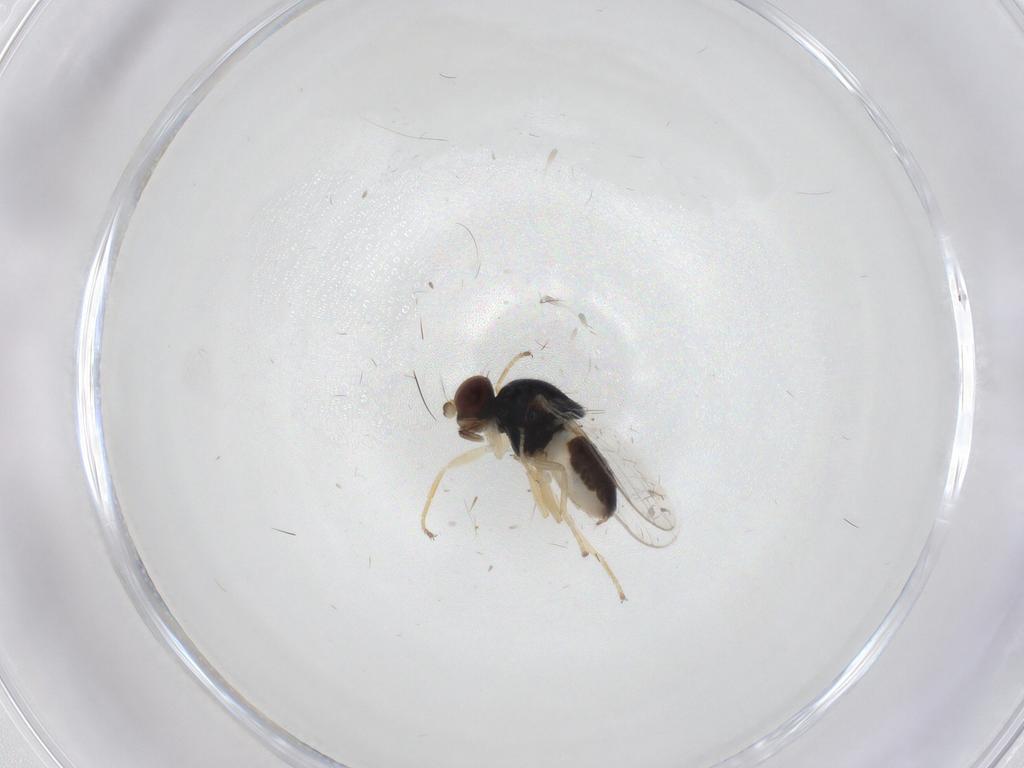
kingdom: Animalia
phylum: Arthropoda
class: Insecta
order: Diptera
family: Chloropidae
